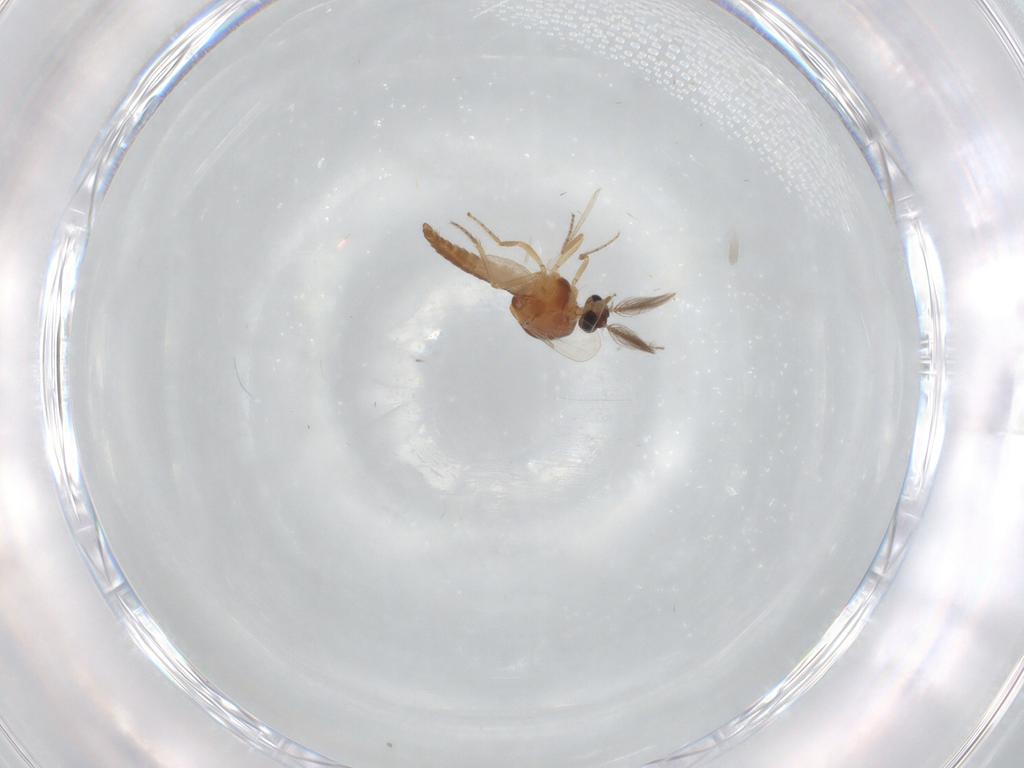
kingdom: Animalia
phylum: Arthropoda
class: Insecta
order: Diptera
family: Ceratopogonidae
